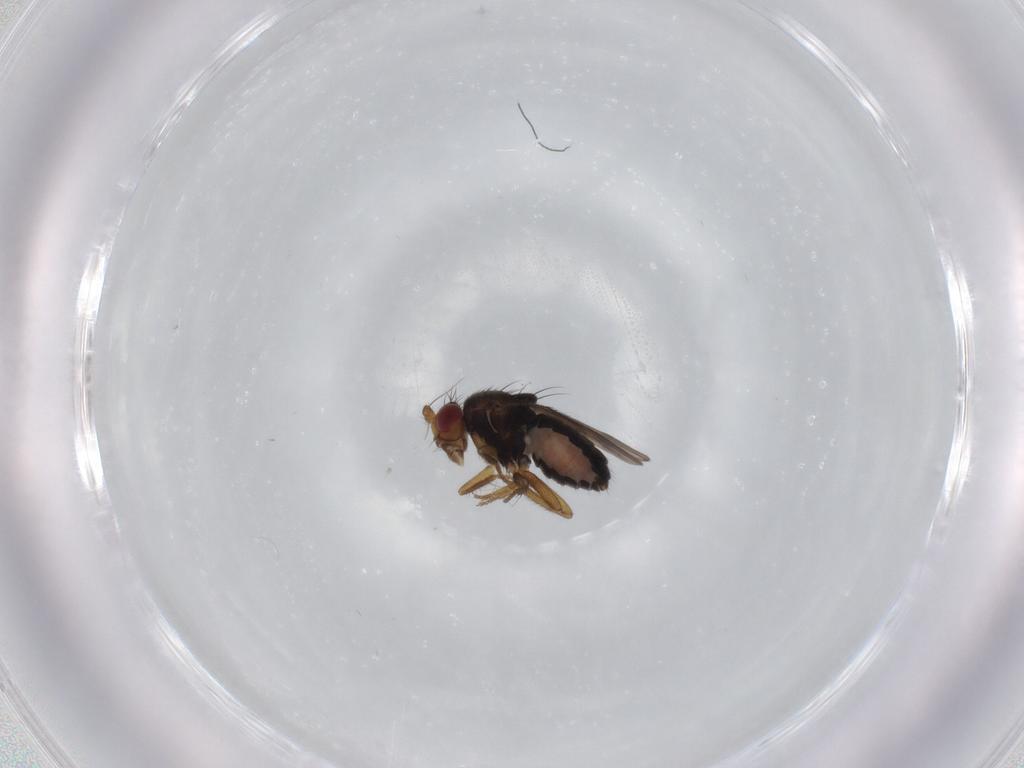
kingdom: Animalia
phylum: Arthropoda
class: Insecta
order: Diptera
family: Sphaeroceridae
